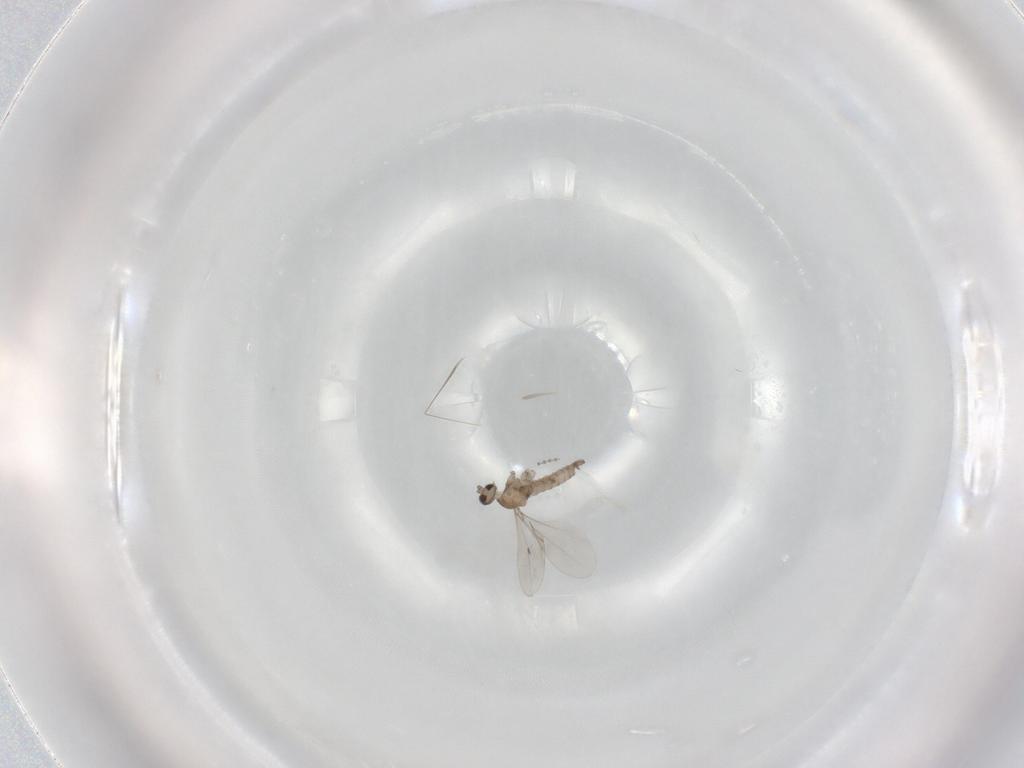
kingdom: Animalia
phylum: Arthropoda
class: Insecta
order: Diptera
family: Cecidomyiidae
